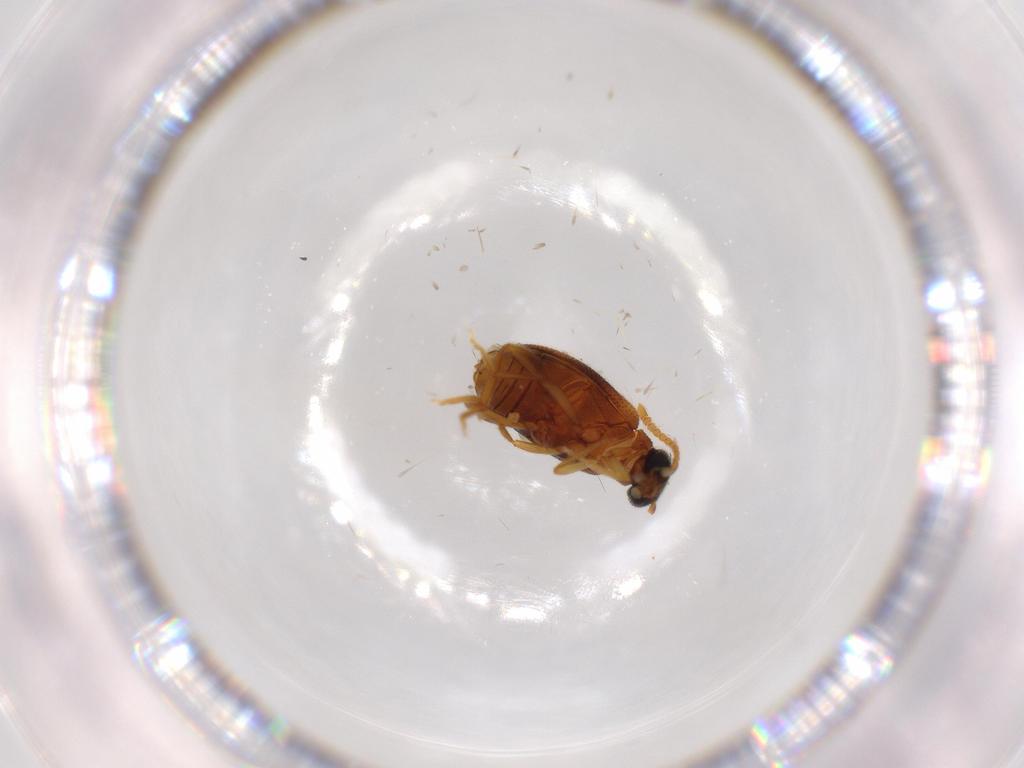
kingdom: Animalia
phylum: Arthropoda
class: Insecta
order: Coleoptera
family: Aderidae
